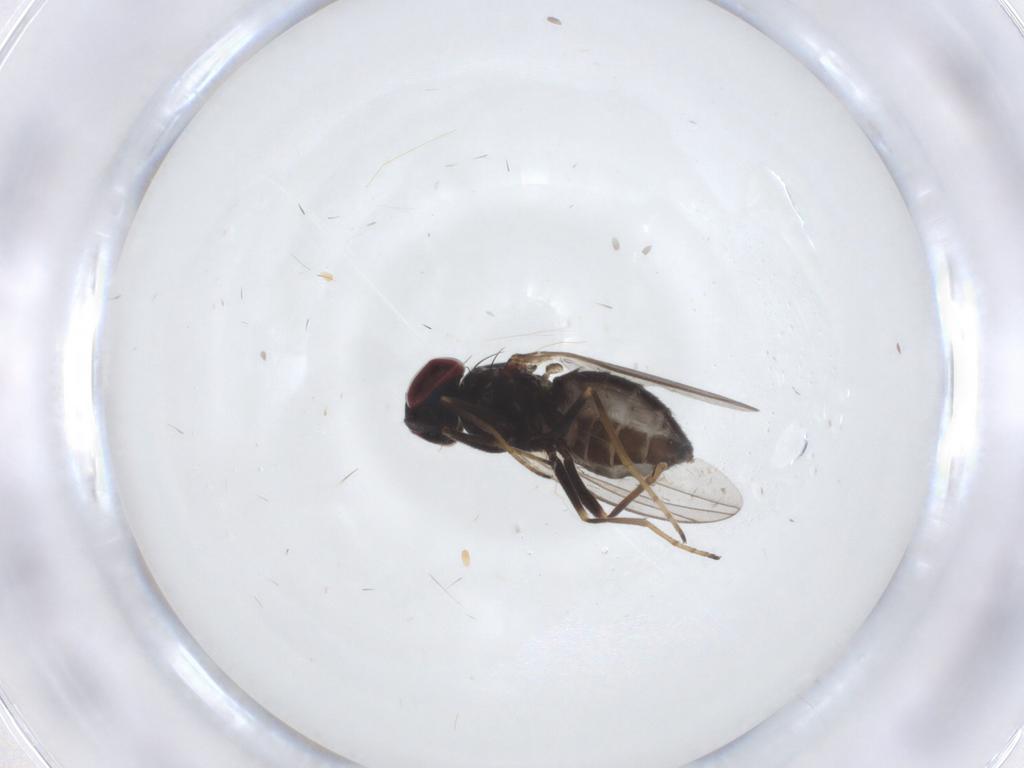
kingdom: Animalia
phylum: Arthropoda
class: Insecta
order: Diptera
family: Dolichopodidae
